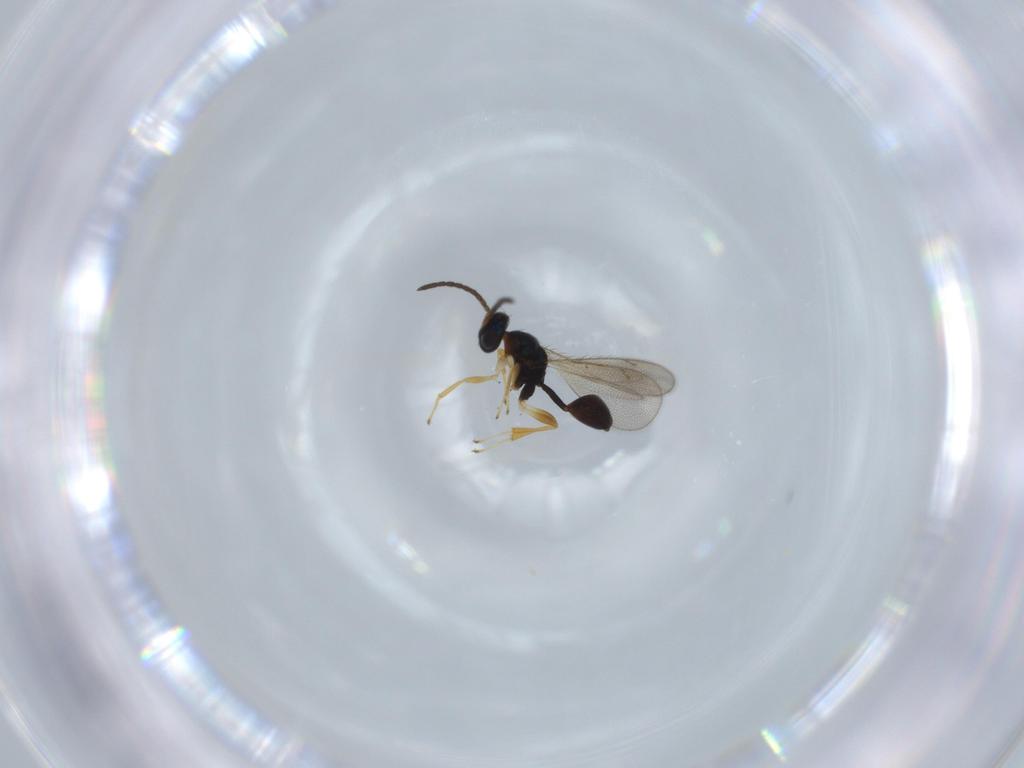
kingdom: Animalia
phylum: Arthropoda
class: Insecta
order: Hymenoptera
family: Diparidae
